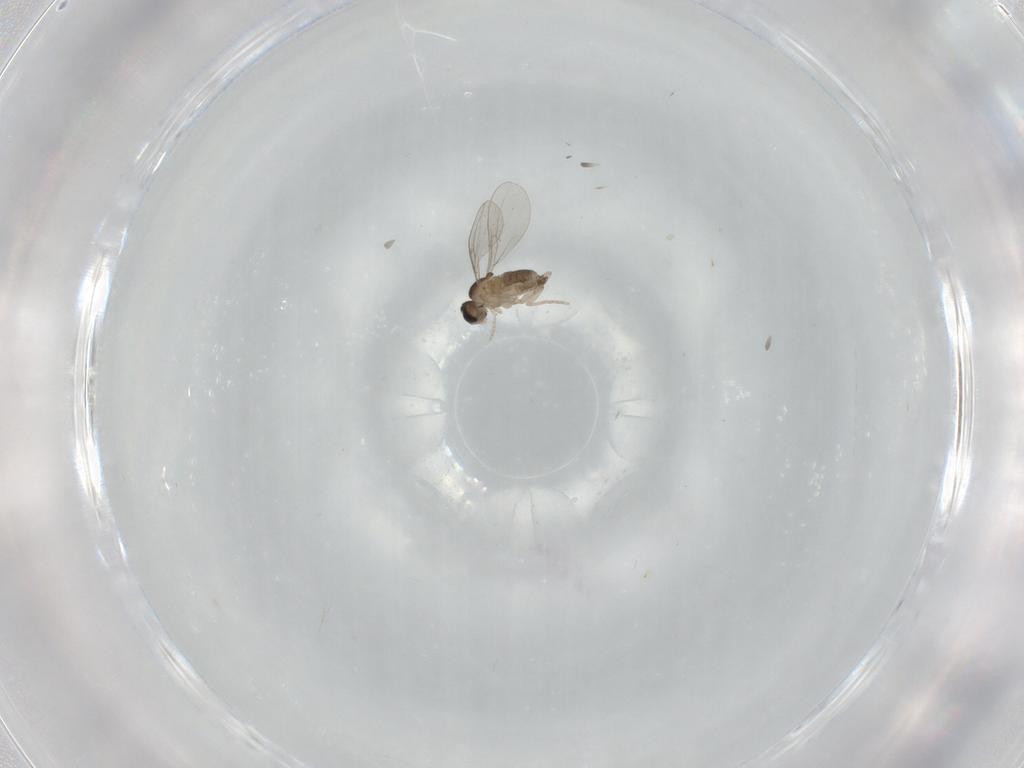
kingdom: Animalia
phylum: Arthropoda
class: Insecta
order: Diptera
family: Cecidomyiidae
